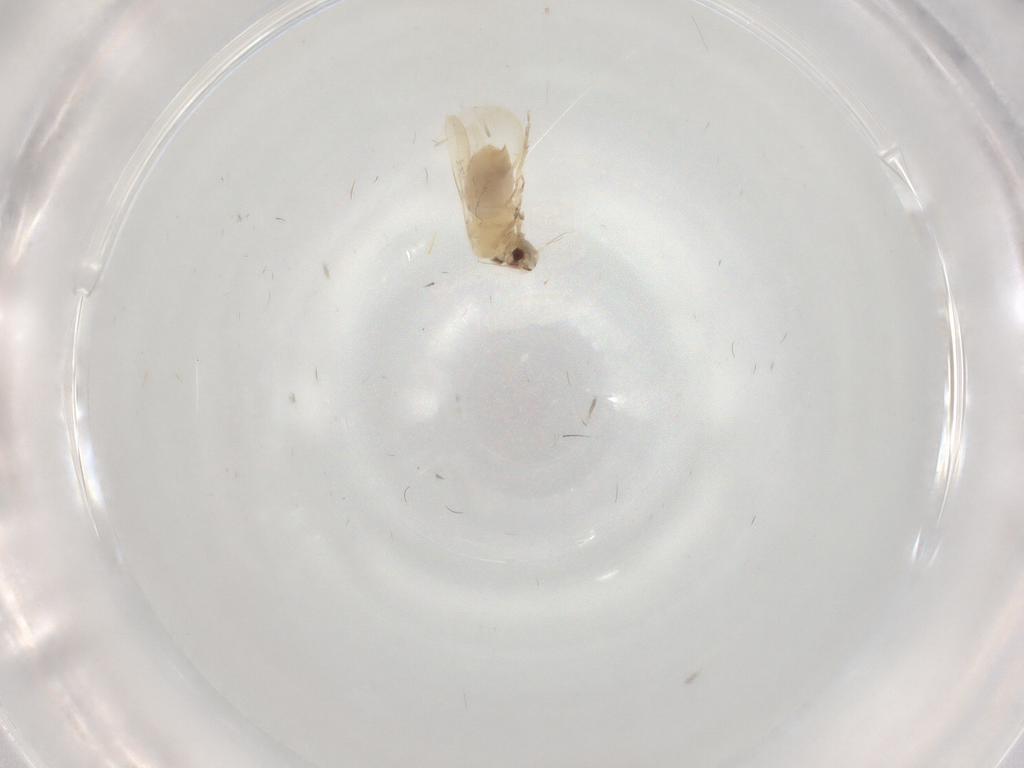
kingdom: Animalia
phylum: Arthropoda
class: Insecta
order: Hemiptera
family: Aleyrodidae
